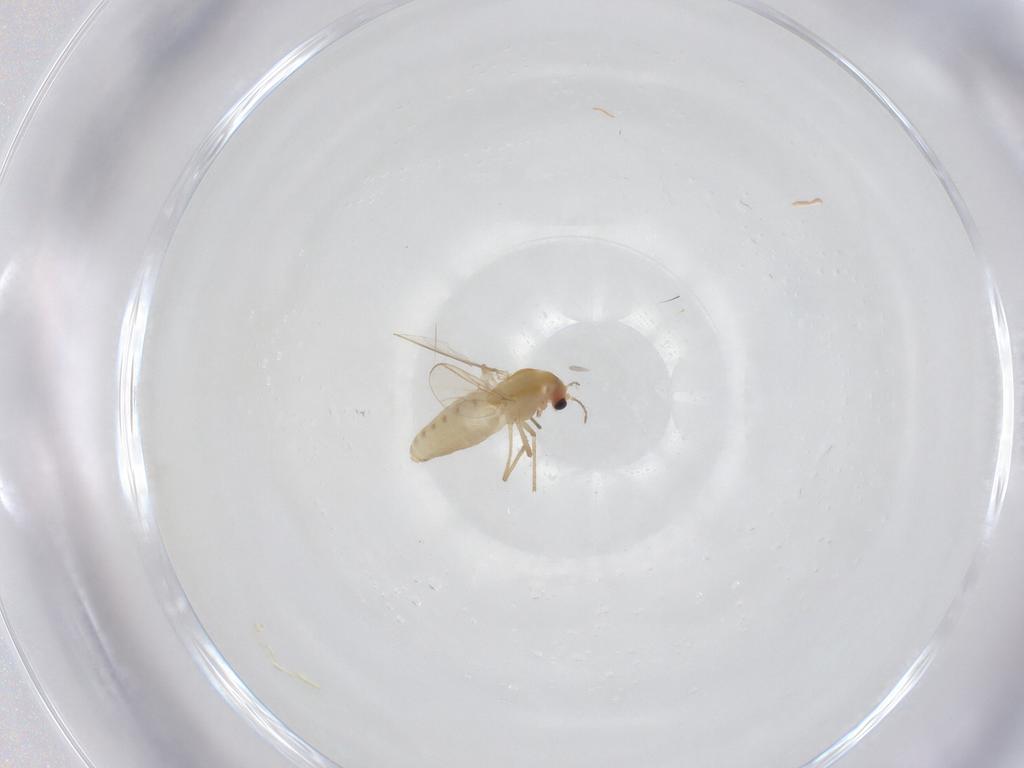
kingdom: Animalia
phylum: Arthropoda
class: Insecta
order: Diptera
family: Chironomidae
